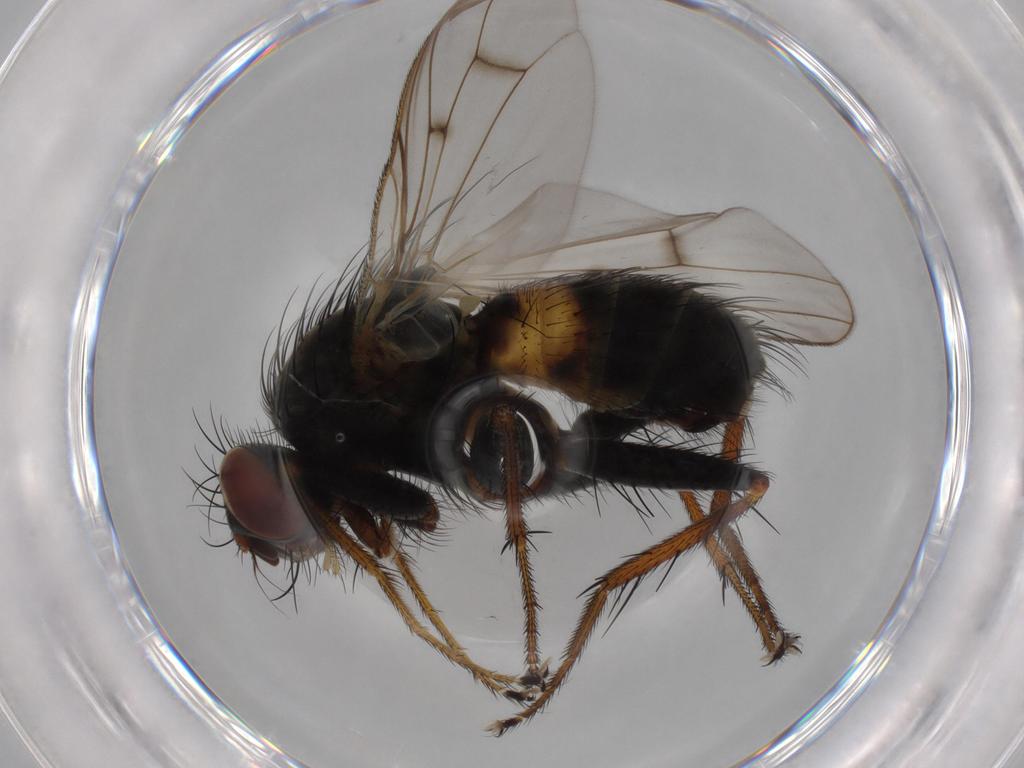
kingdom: Animalia
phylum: Arthropoda
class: Insecta
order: Diptera
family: Muscidae
